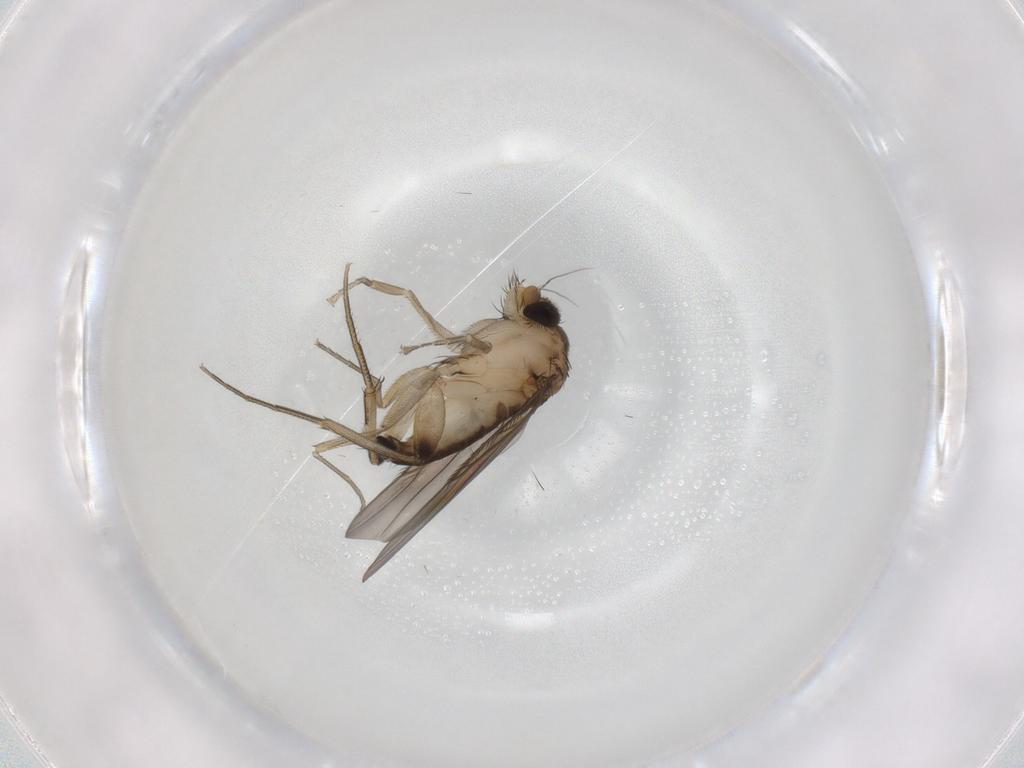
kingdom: Animalia
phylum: Arthropoda
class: Insecta
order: Diptera
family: Phoridae
